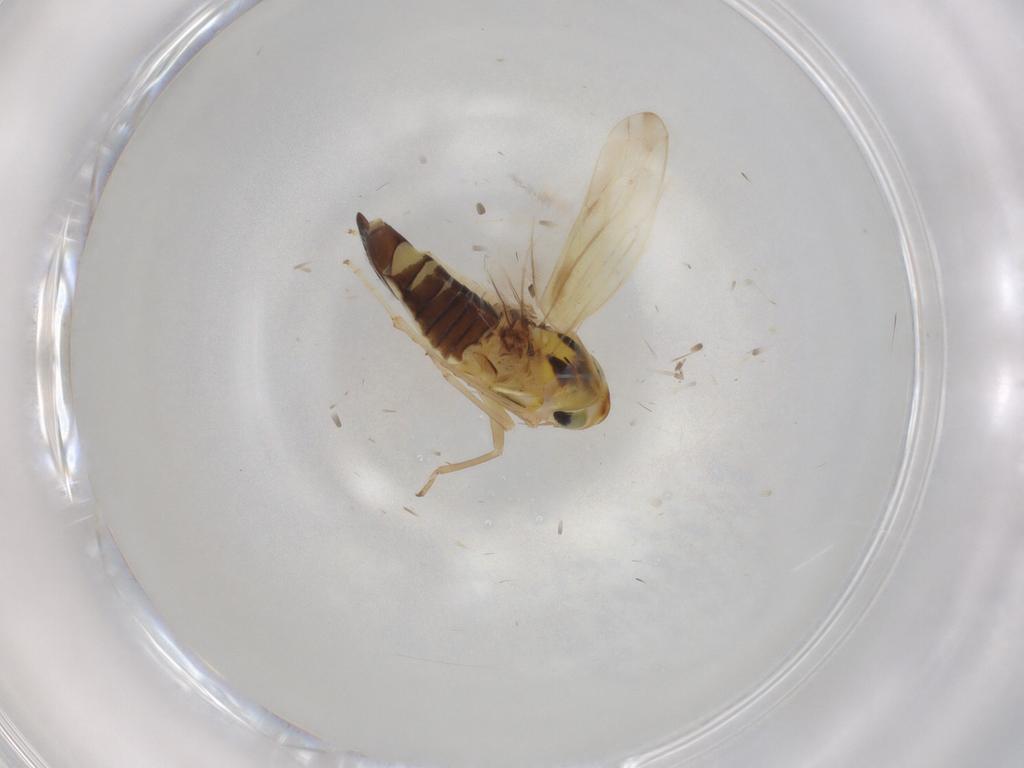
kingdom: Animalia
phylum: Arthropoda
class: Insecta
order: Hemiptera
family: Cicadellidae
